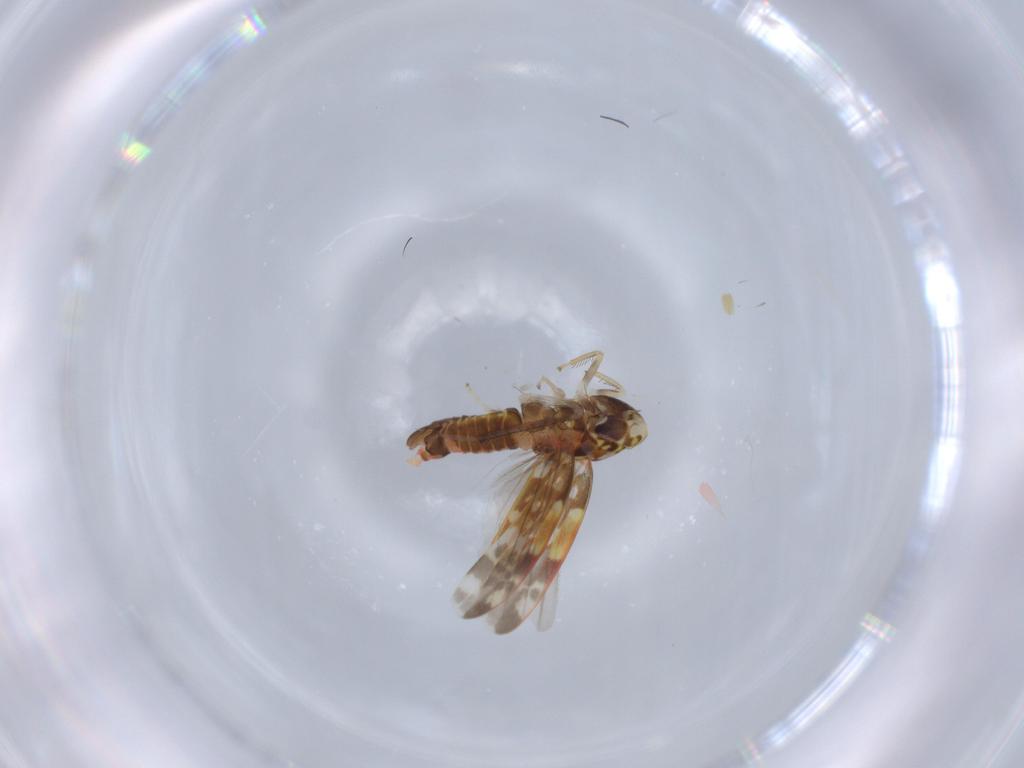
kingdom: Animalia
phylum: Arthropoda
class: Insecta
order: Hemiptera
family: Cicadellidae
